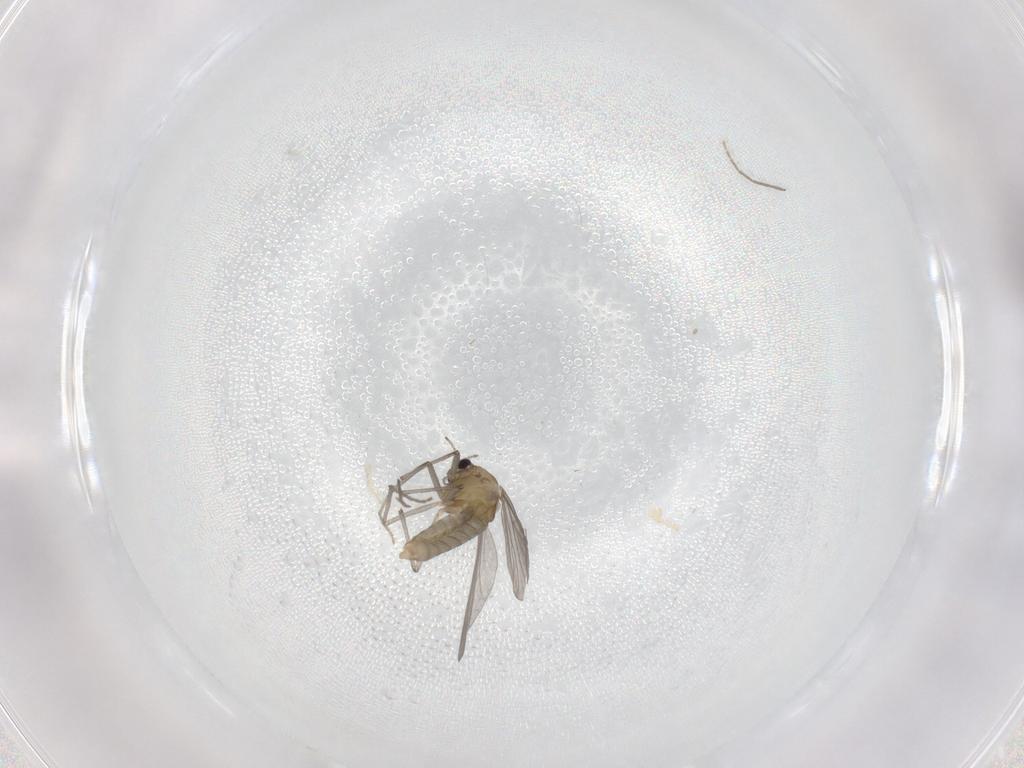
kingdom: Animalia
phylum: Arthropoda
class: Insecta
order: Diptera
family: Chironomidae
